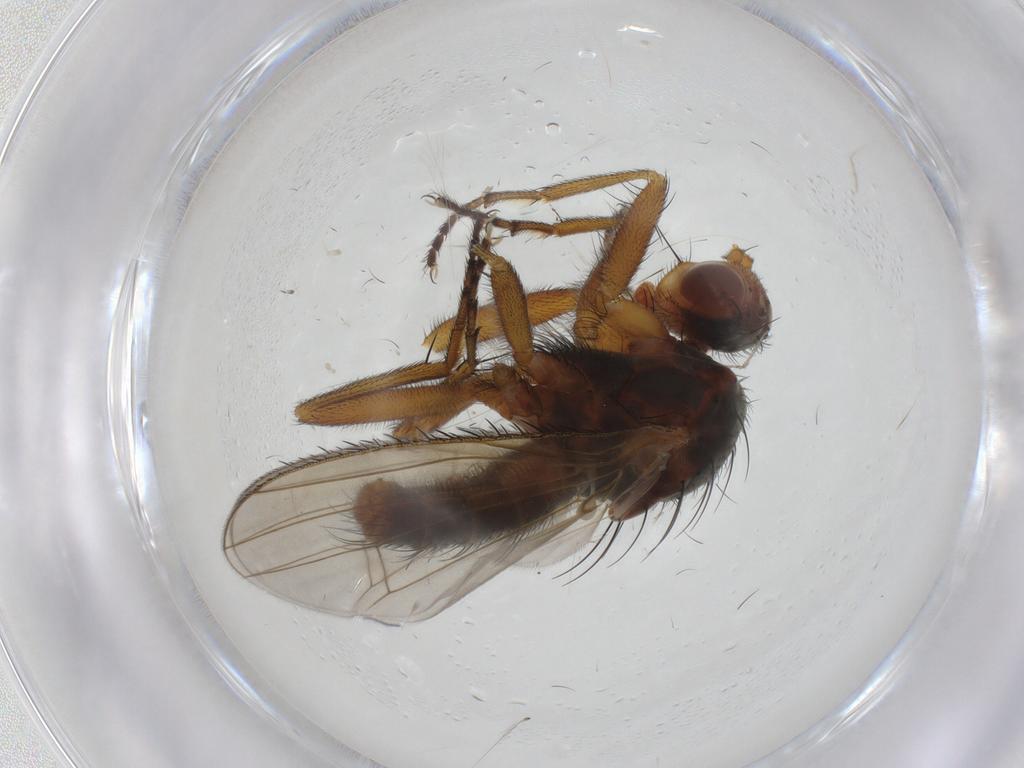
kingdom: Animalia
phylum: Arthropoda
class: Insecta
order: Diptera
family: Heleomyzidae
